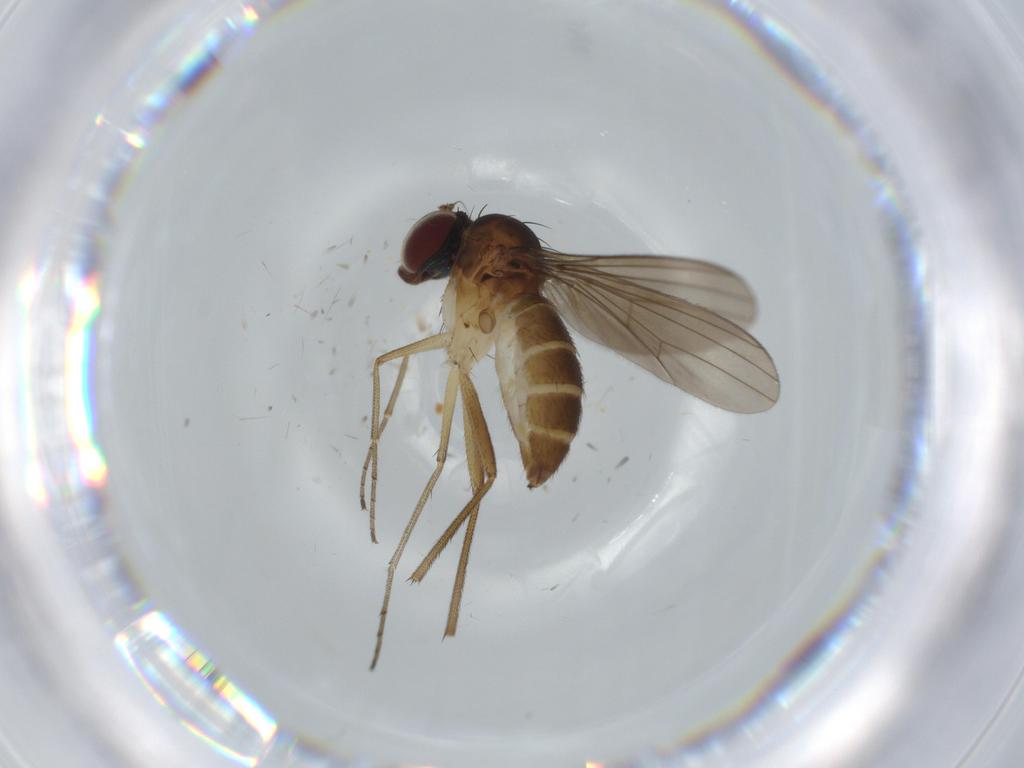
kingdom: Animalia
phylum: Arthropoda
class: Insecta
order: Diptera
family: Dolichopodidae
